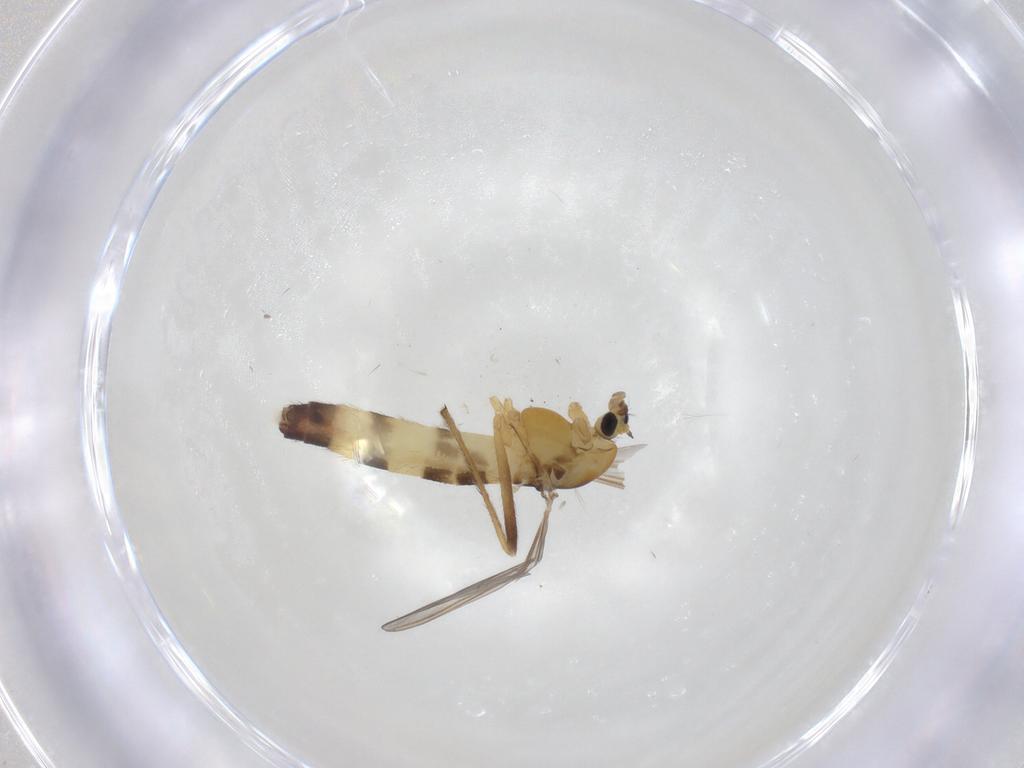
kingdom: Animalia
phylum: Arthropoda
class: Insecta
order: Diptera
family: Chironomidae
